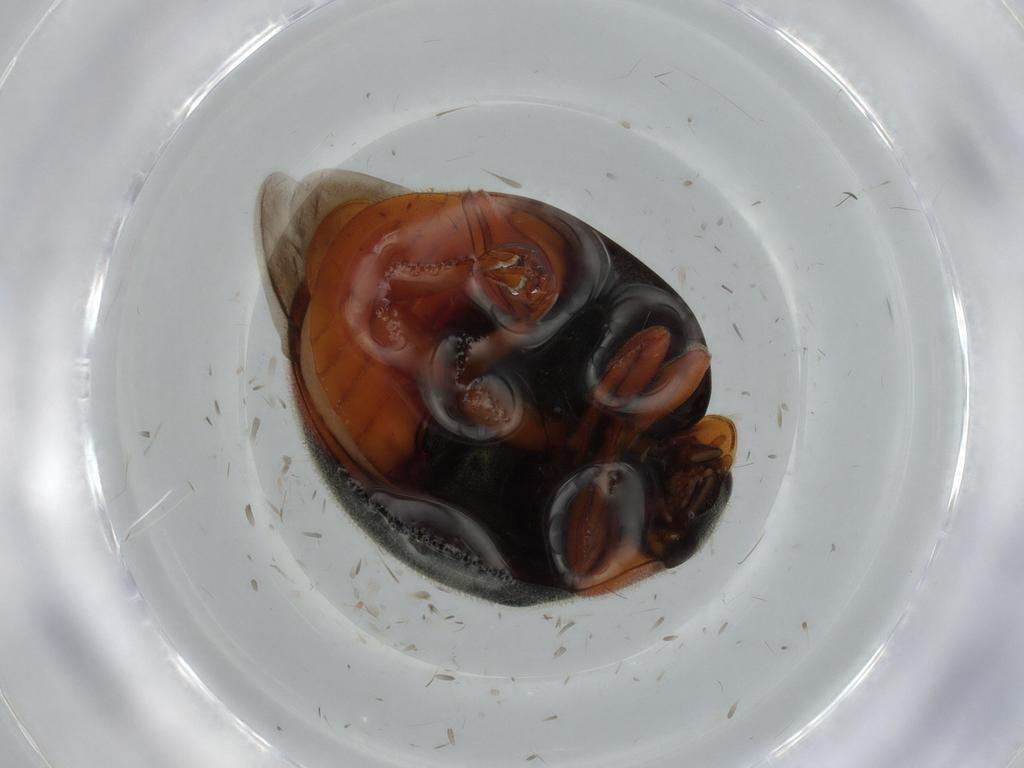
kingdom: Animalia
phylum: Arthropoda
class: Insecta
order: Coleoptera
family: Coccinellidae
